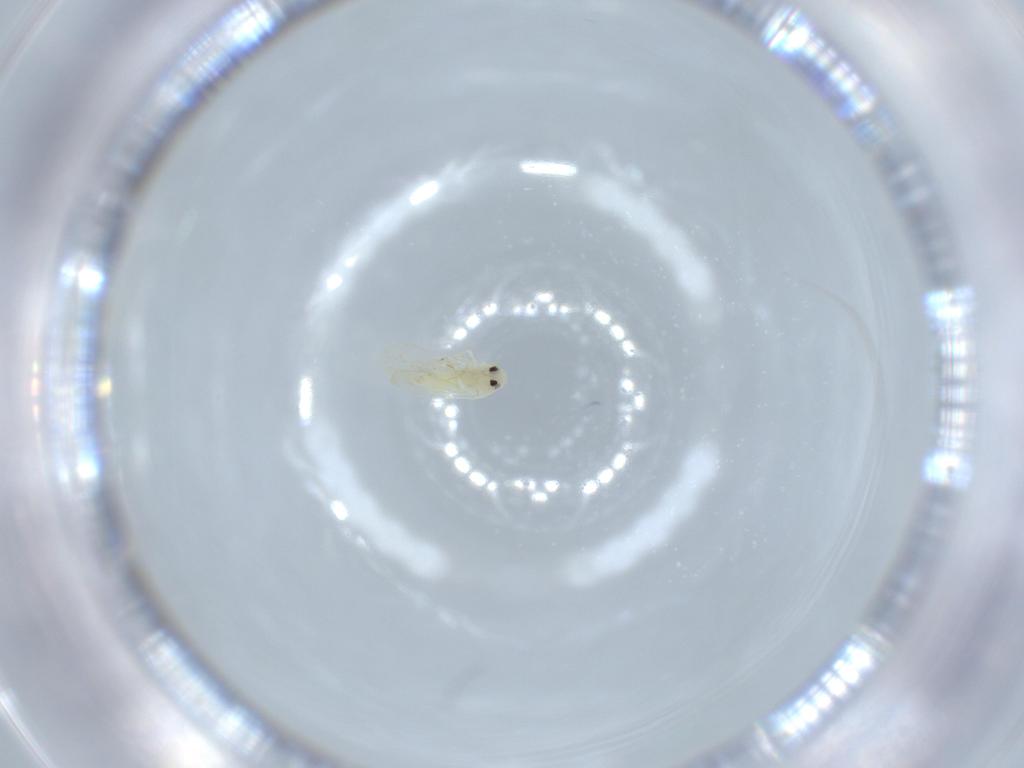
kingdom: Animalia
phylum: Arthropoda
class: Insecta
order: Hemiptera
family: Aleyrodidae
